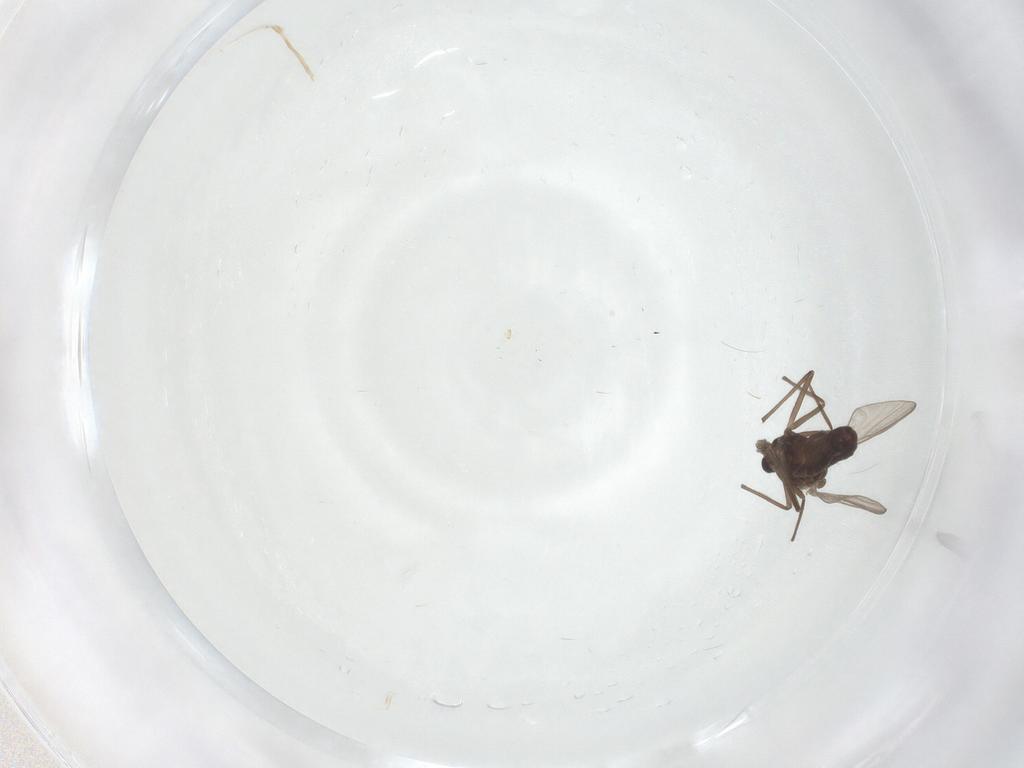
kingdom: Animalia
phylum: Arthropoda
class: Insecta
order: Diptera
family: Chironomidae
